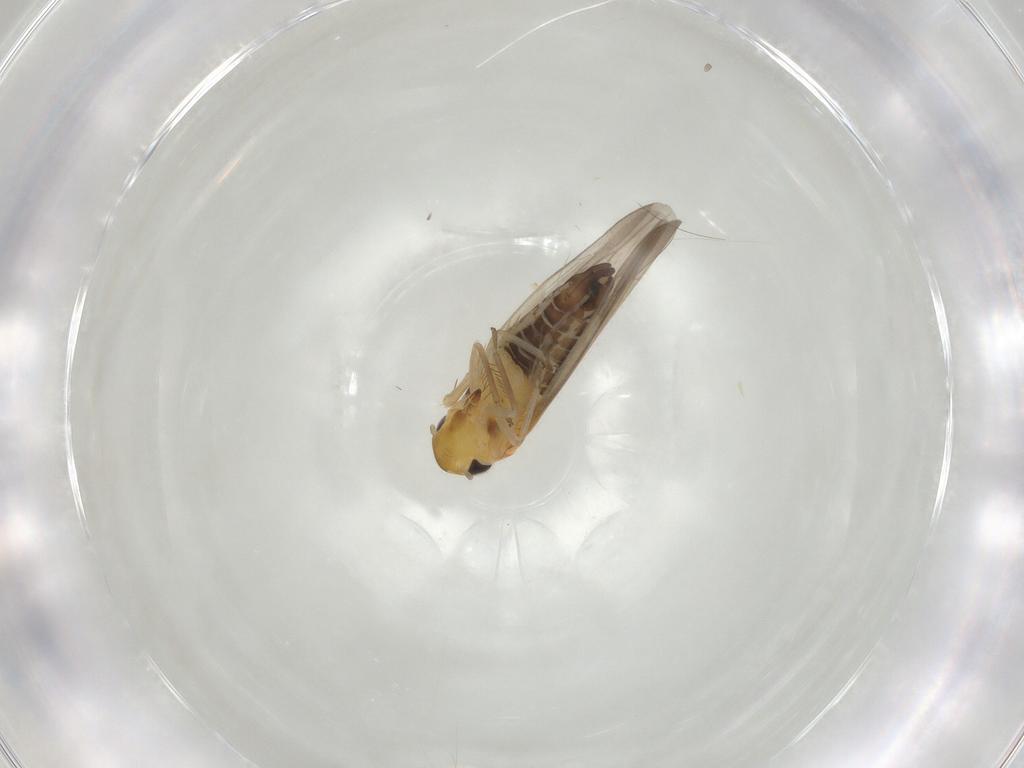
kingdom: Animalia
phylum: Arthropoda
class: Insecta
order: Hemiptera
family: Cicadellidae
